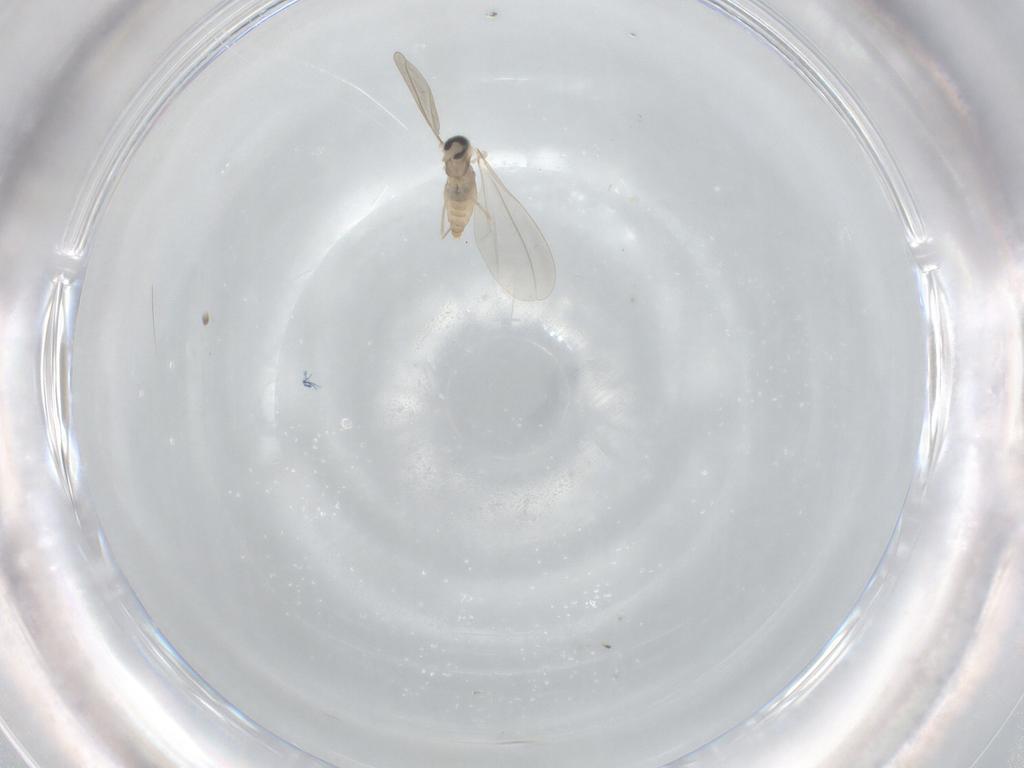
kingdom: Animalia
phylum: Arthropoda
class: Insecta
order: Diptera
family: Cecidomyiidae
